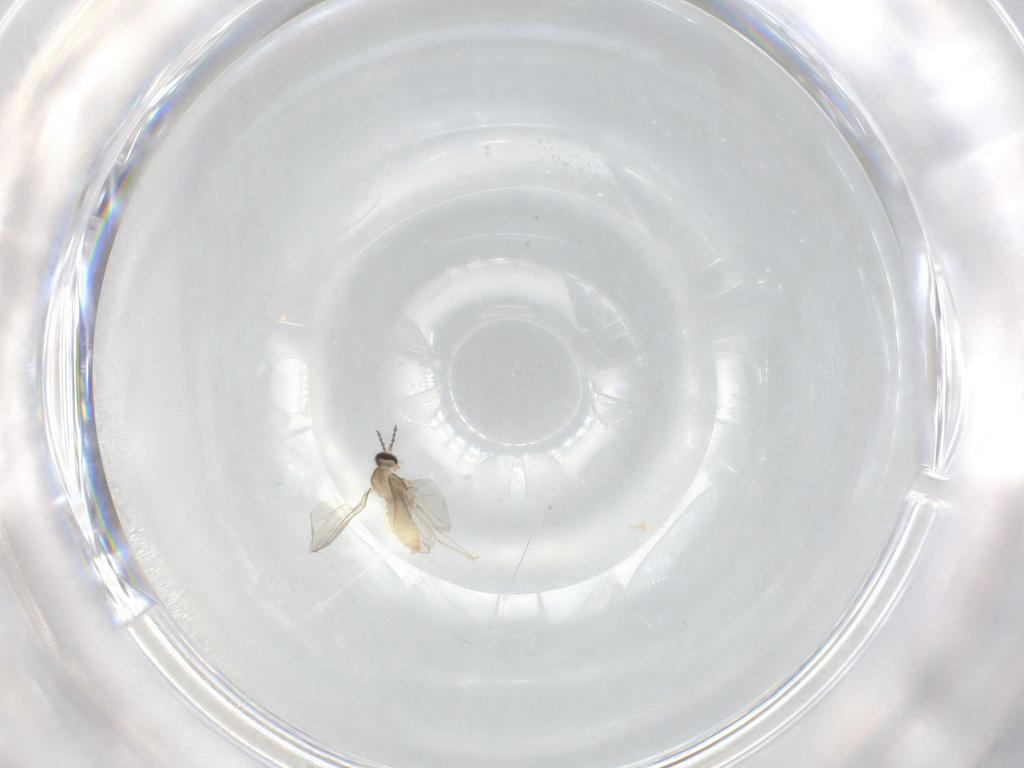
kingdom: Animalia
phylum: Arthropoda
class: Insecta
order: Diptera
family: Cecidomyiidae
